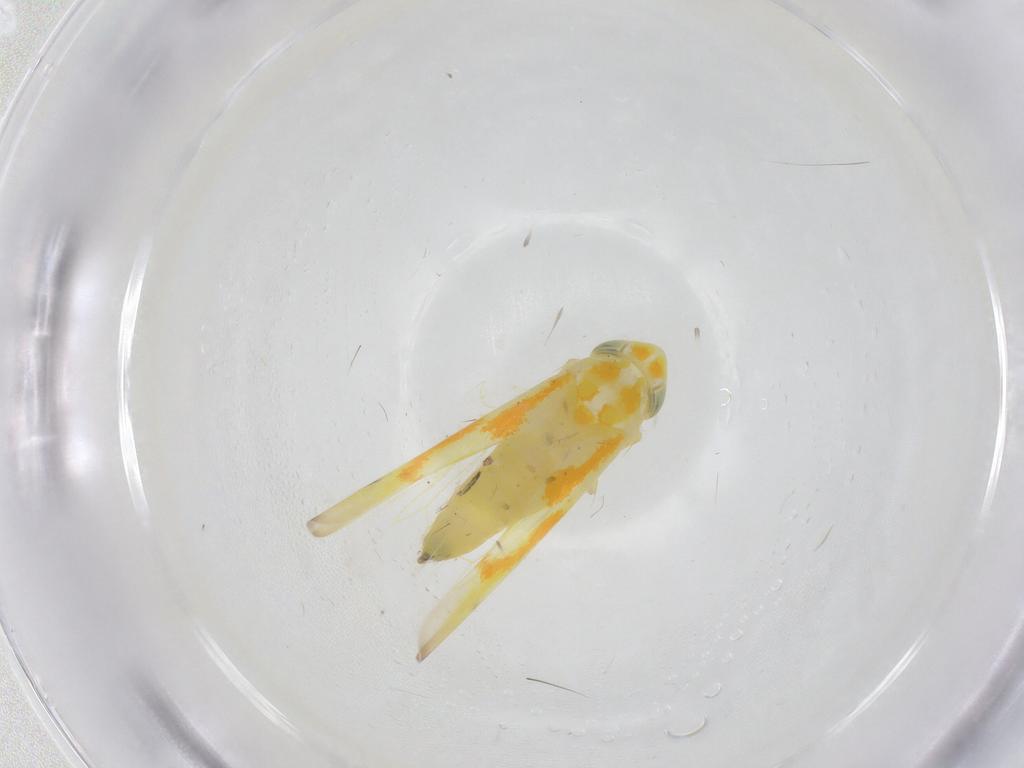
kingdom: Animalia
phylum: Arthropoda
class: Insecta
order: Hemiptera
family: Cicadellidae
